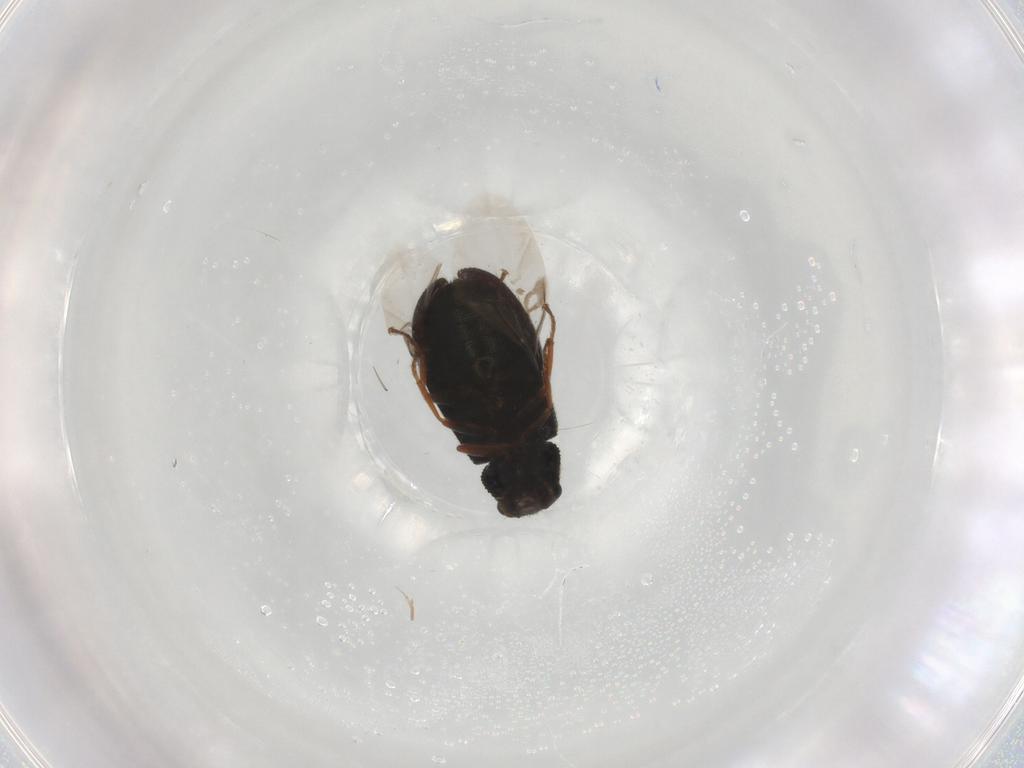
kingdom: Animalia
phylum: Arthropoda
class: Insecta
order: Coleoptera
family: Melyridae
